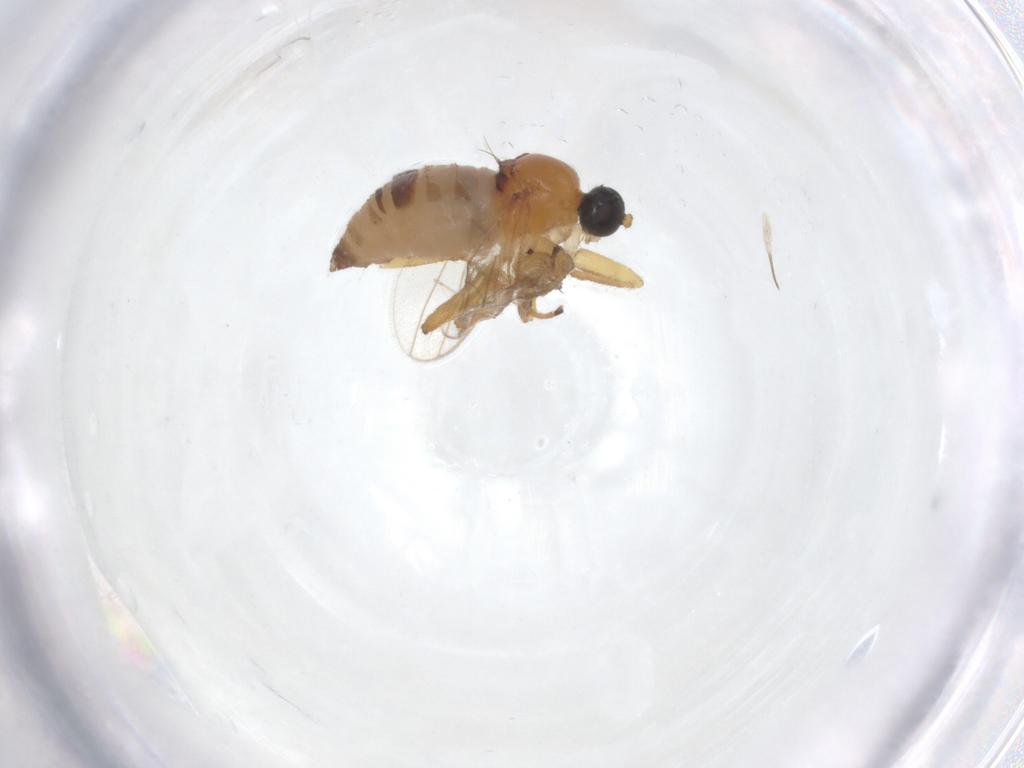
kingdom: Animalia
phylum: Arthropoda
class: Insecta
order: Diptera
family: Hybotidae
